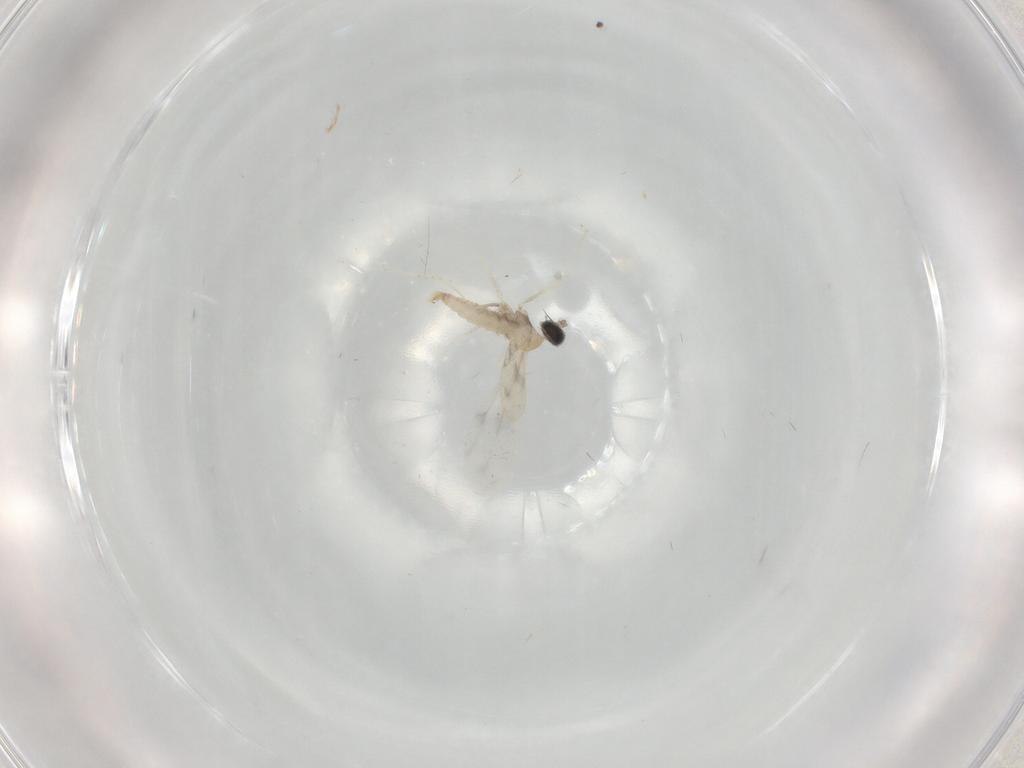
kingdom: Animalia
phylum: Arthropoda
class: Insecta
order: Diptera
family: Cecidomyiidae
